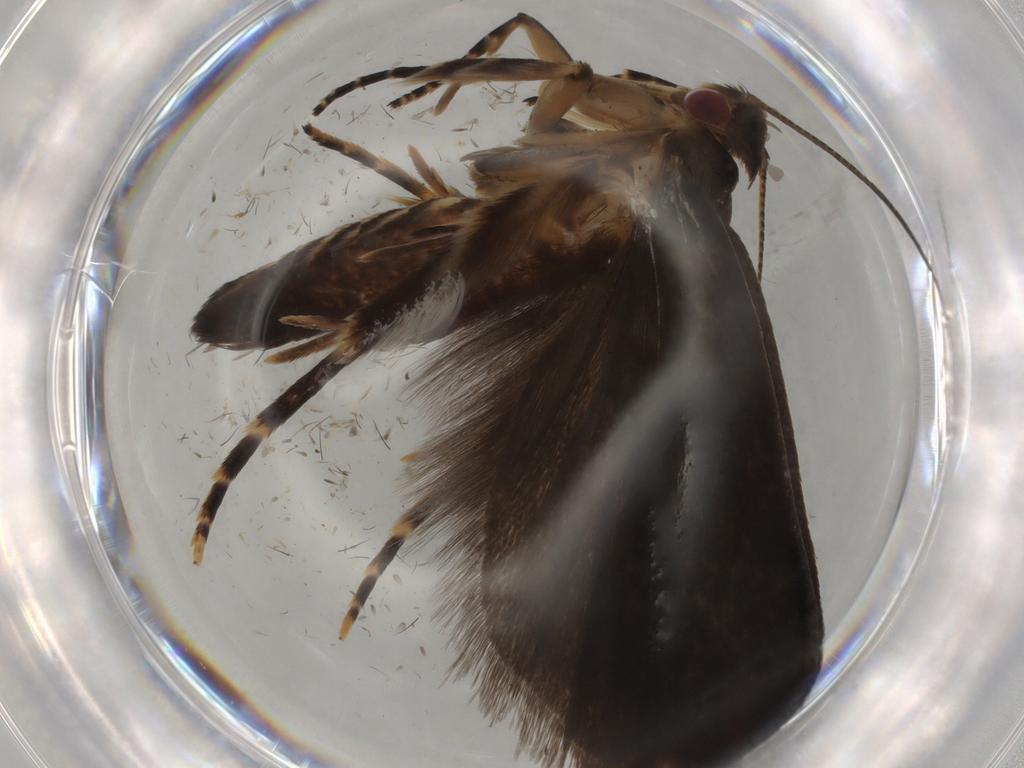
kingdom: Animalia
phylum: Arthropoda
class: Insecta
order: Lepidoptera
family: Gelechiidae
